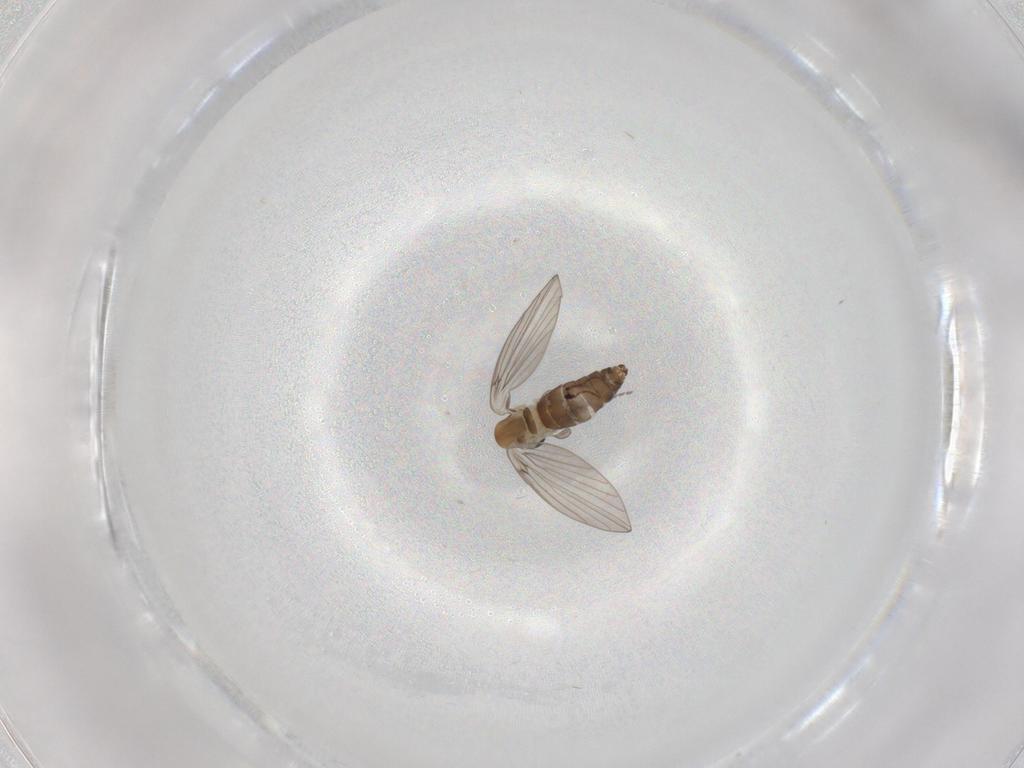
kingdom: Animalia
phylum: Arthropoda
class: Insecta
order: Diptera
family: Psychodidae
